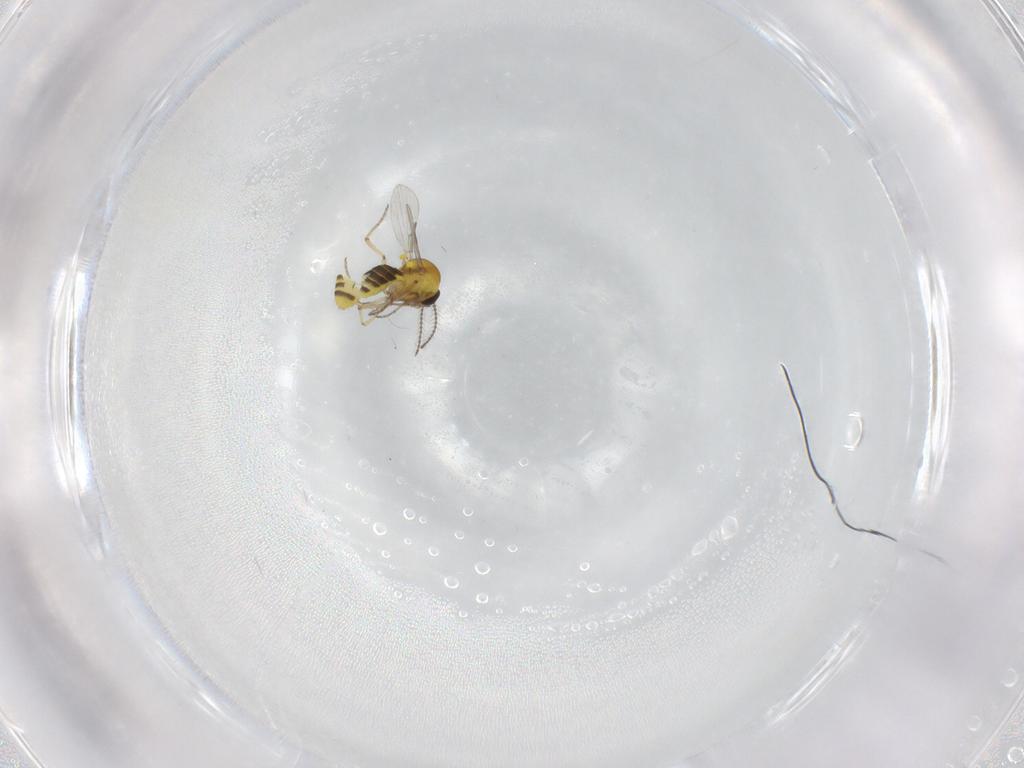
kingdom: Animalia
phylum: Arthropoda
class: Insecta
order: Diptera
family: Ceratopogonidae
